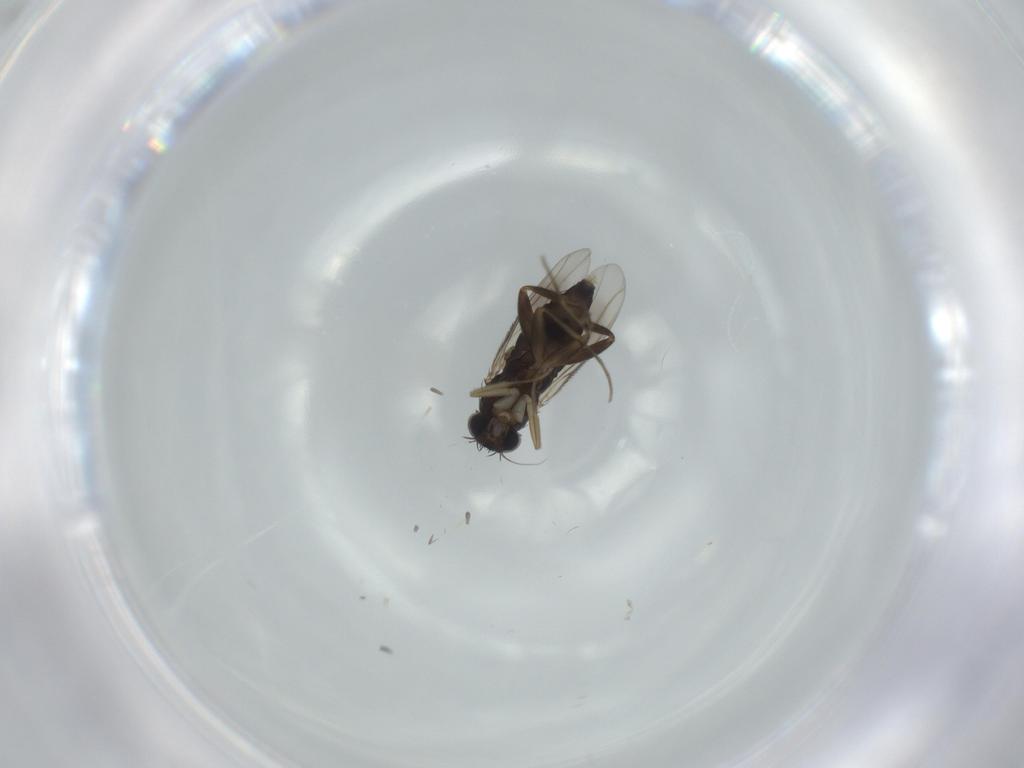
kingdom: Animalia
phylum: Arthropoda
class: Insecta
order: Diptera
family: Phoridae
